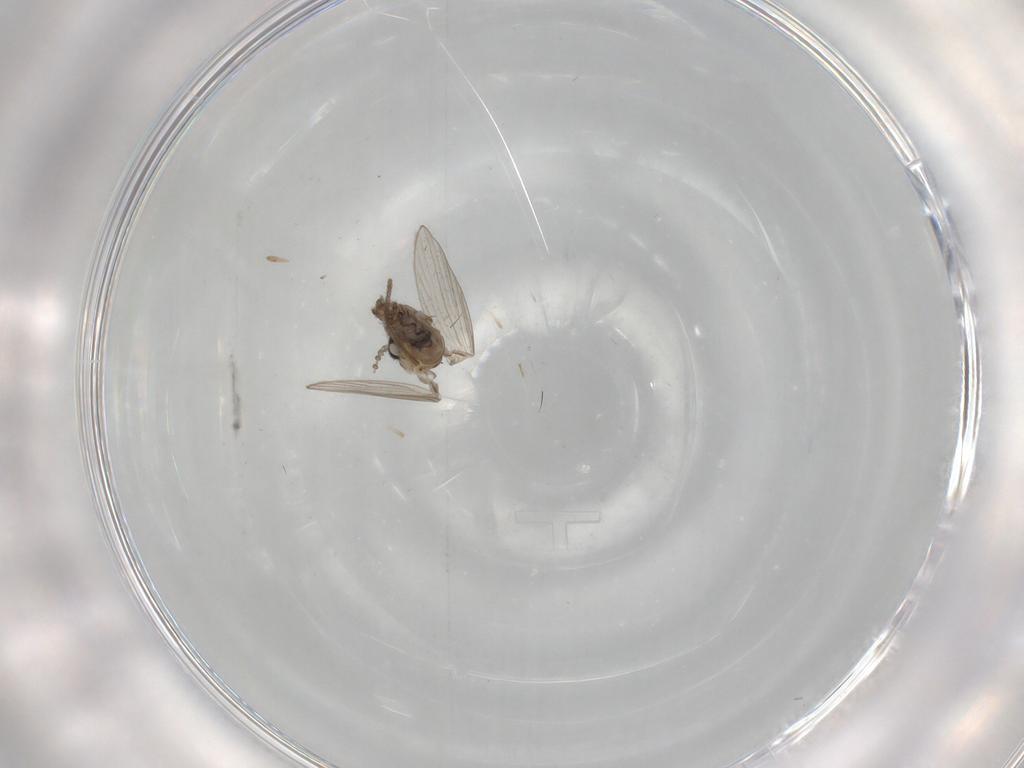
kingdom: Animalia
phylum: Arthropoda
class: Insecta
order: Diptera
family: Psychodidae
